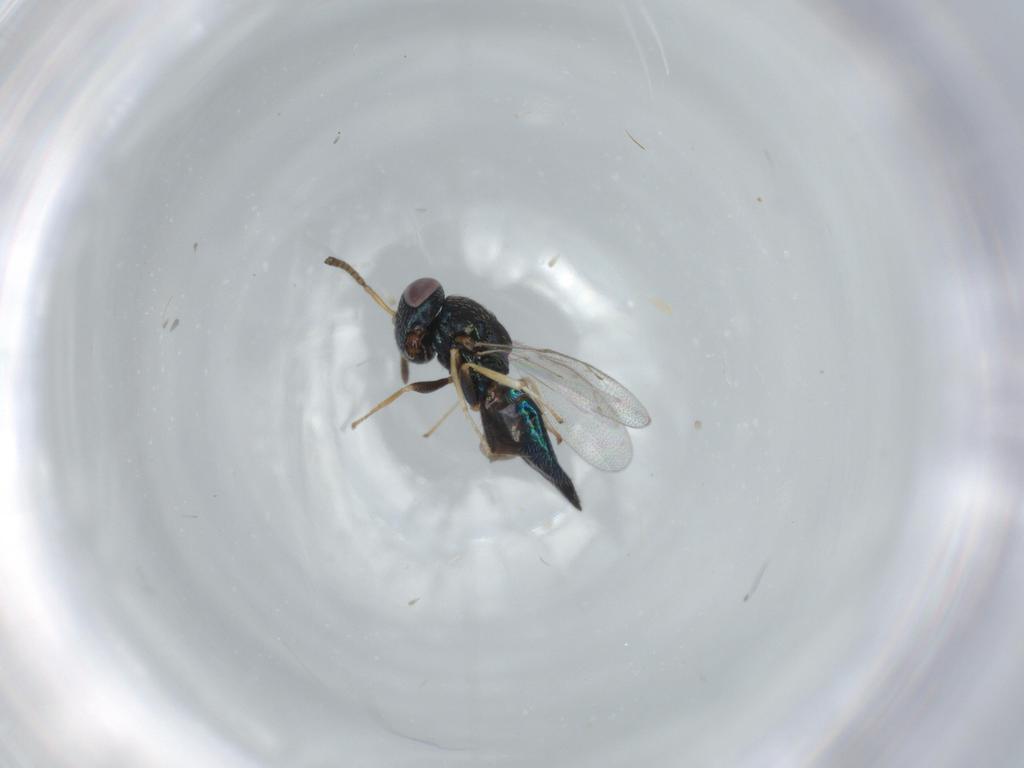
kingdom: Animalia
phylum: Arthropoda
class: Insecta
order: Hymenoptera
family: Pteromalidae
